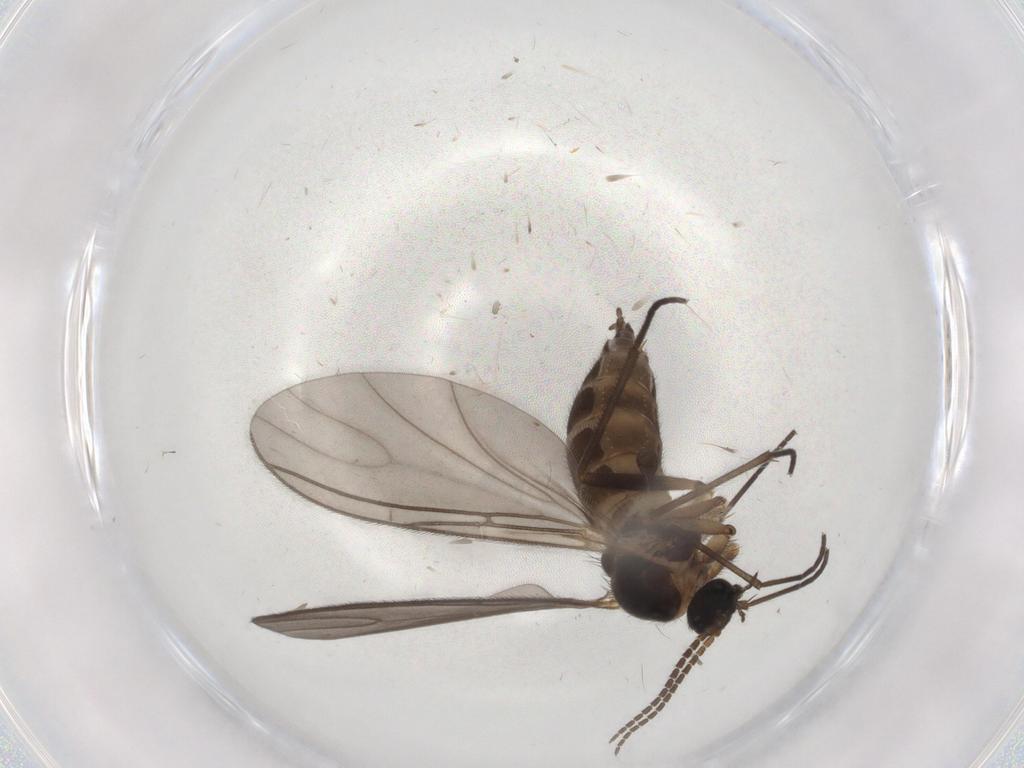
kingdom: Animalia
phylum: Arthropoda
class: Insecta
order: Diptera
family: Sciaridae
